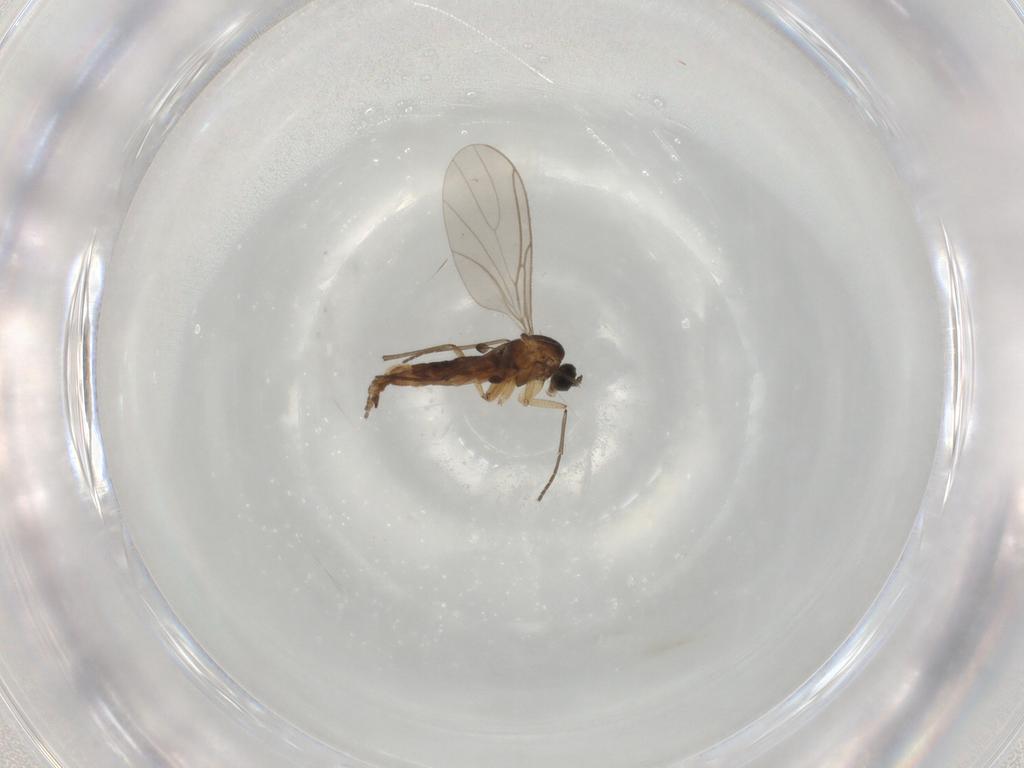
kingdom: Animalia
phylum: Arthropoda
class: Insecta
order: Diptera
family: Sciaridae
